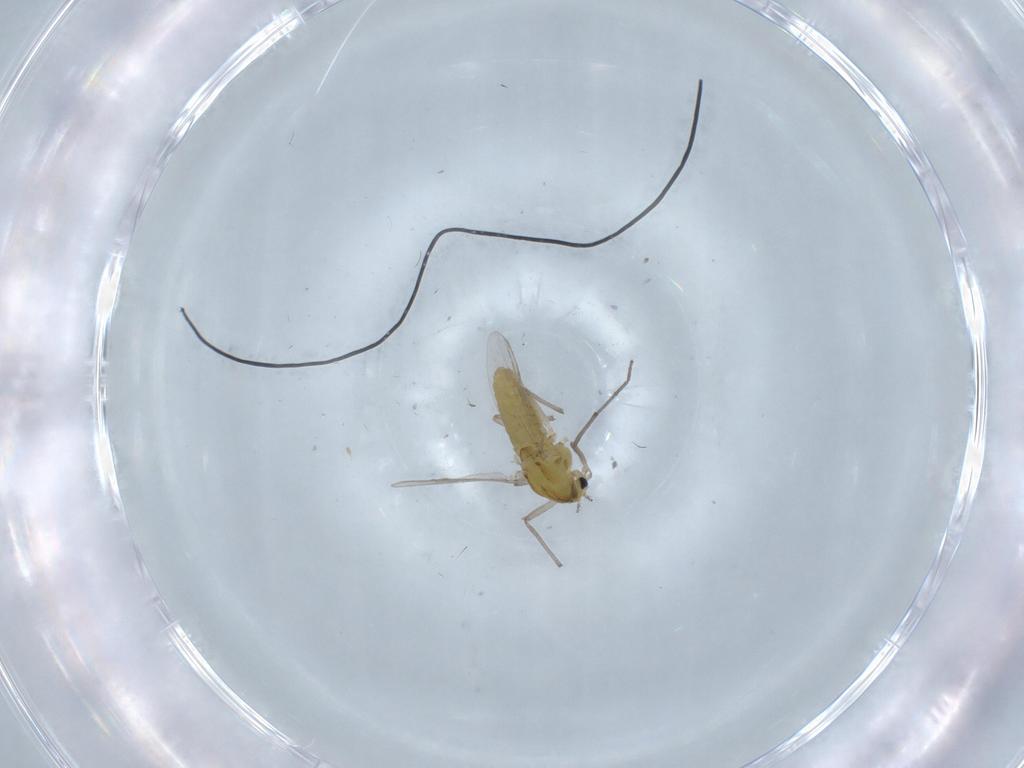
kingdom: Animalia
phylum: Arthropoda
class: Insecta
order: Diptera
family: Chironomidae
